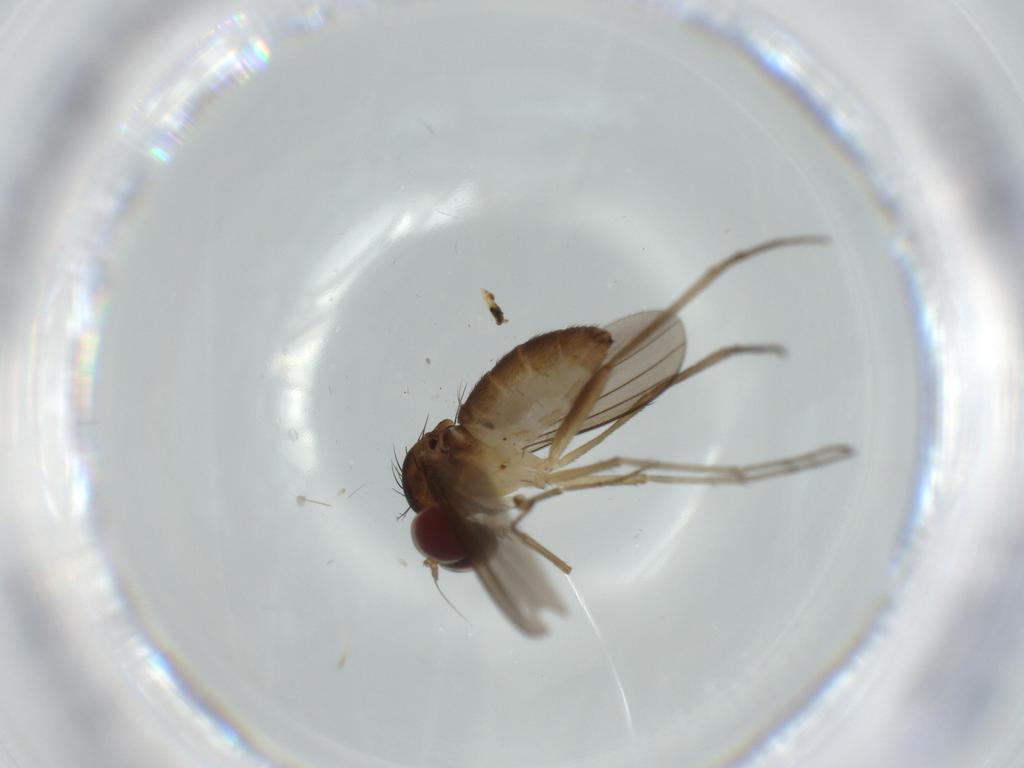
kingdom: Animalia
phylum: Arthropoda
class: Insecta
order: Diptera
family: Dolichopodidae
